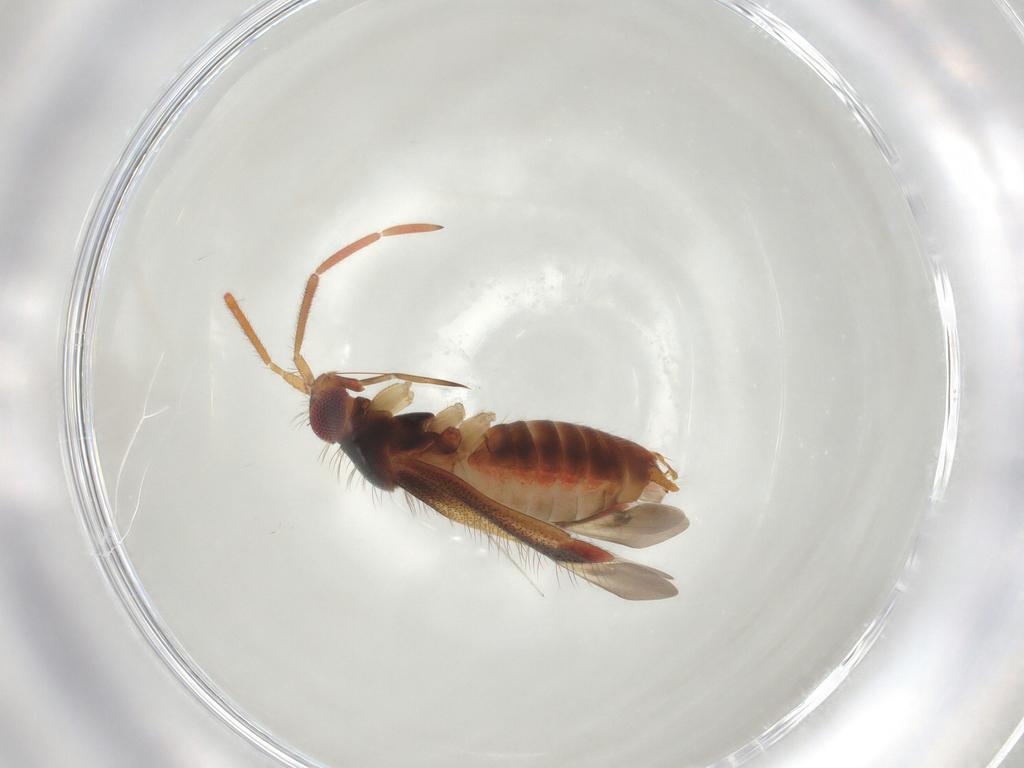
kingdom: Animalia
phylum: Arthropoda
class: Insecta
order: Hemiptera
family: Miridae
